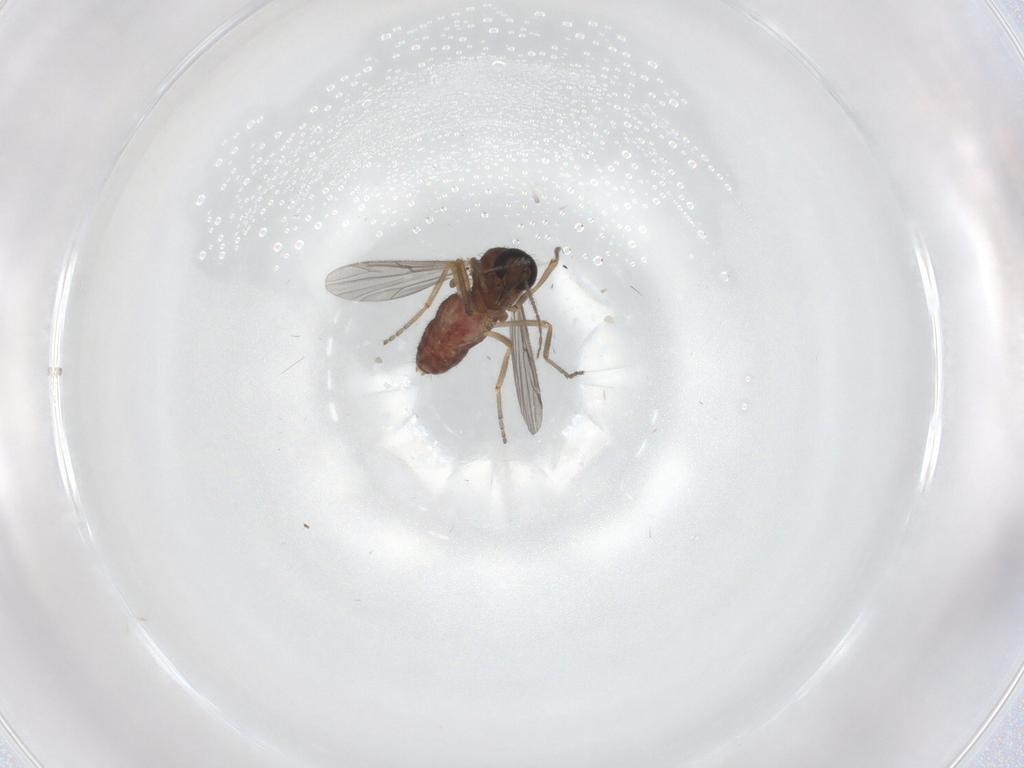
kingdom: Animalia
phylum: Arthropoda
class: Insecta
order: Diptera
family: Ceratopogonidae
